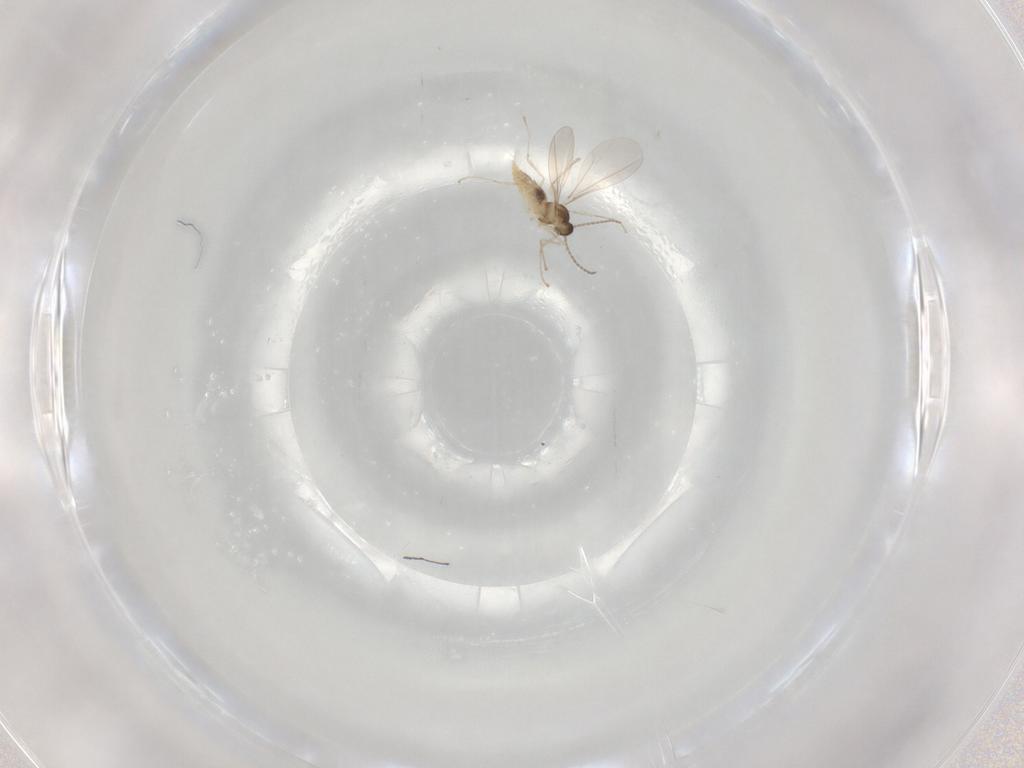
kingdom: Animalia
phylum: Arthropoda
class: Insecta
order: Diptera
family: Cecidomyiidae
